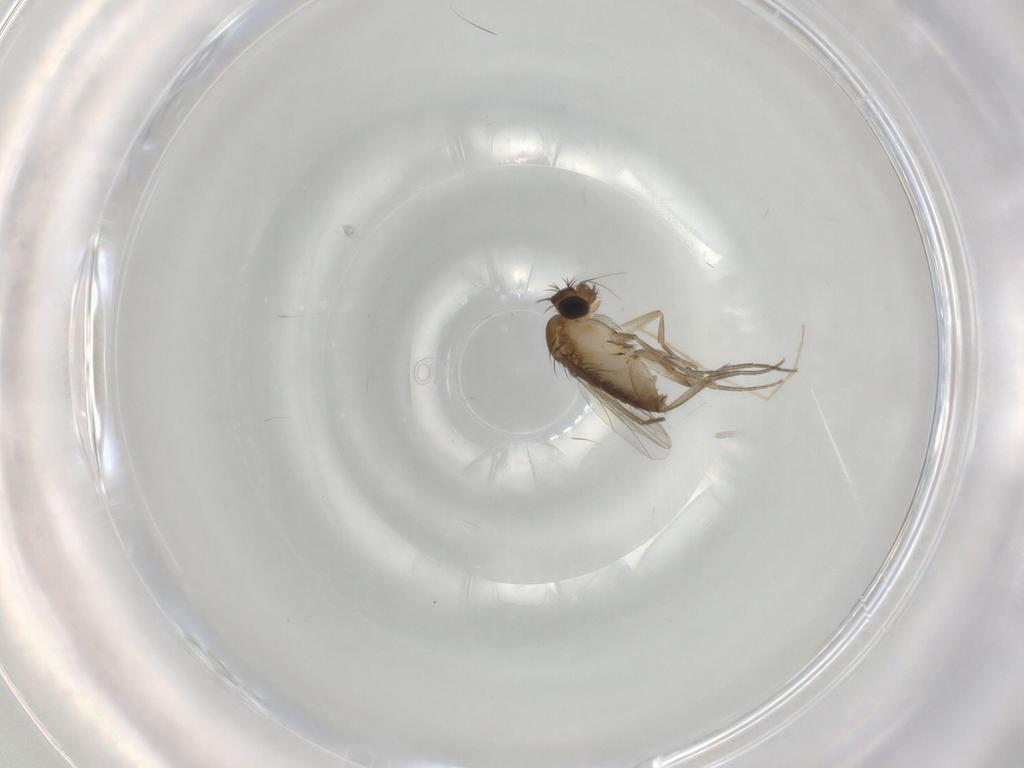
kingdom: Animalia
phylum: Arthropoda
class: Insecta
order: Diptera
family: Phoridae
